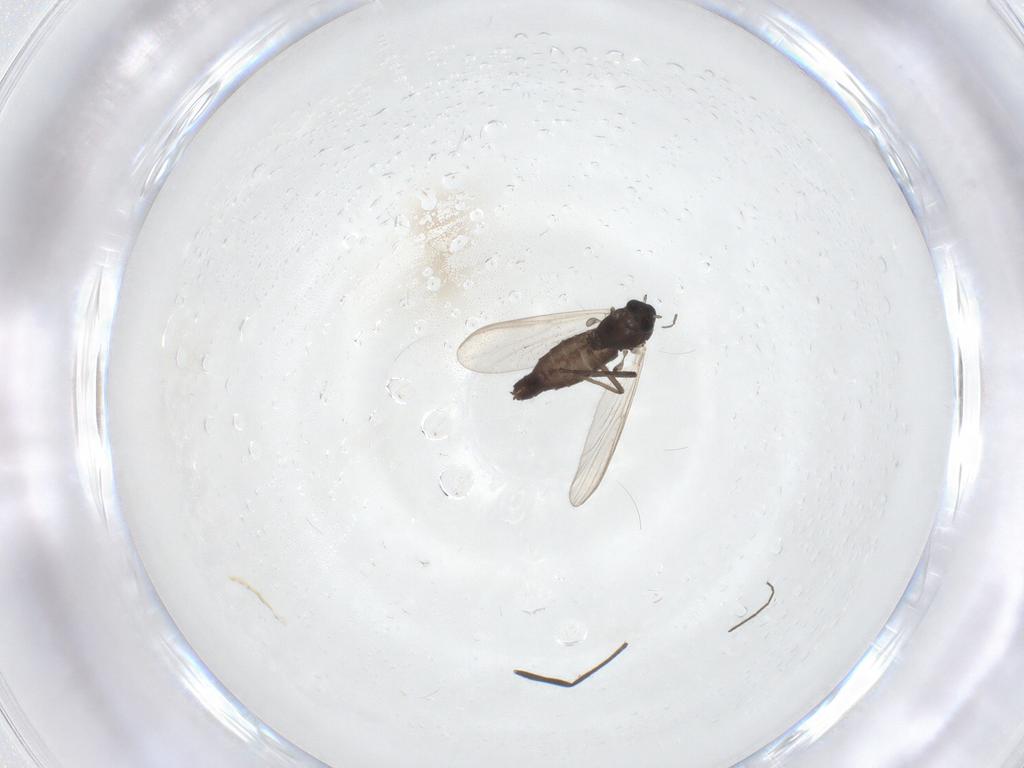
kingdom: Animalia
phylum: Arthropoda
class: Insecta
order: Diptera
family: Chironomidae
